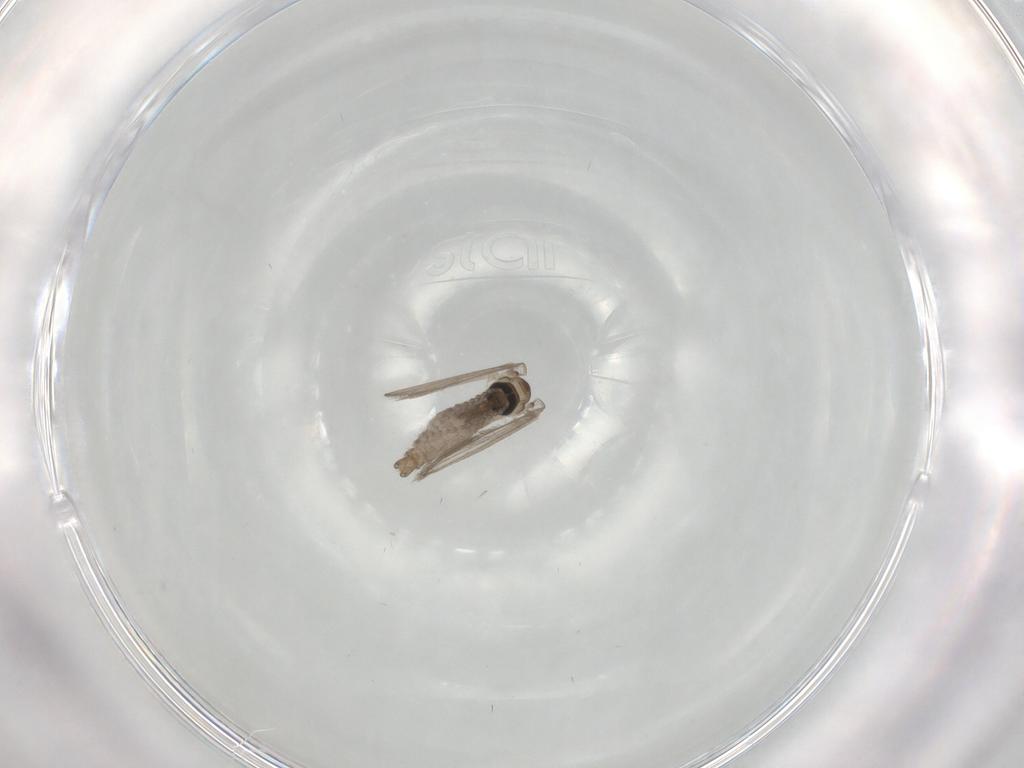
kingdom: Animalia
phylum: Arthropoda
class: Insecta
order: Diptera
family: Psychodidae
